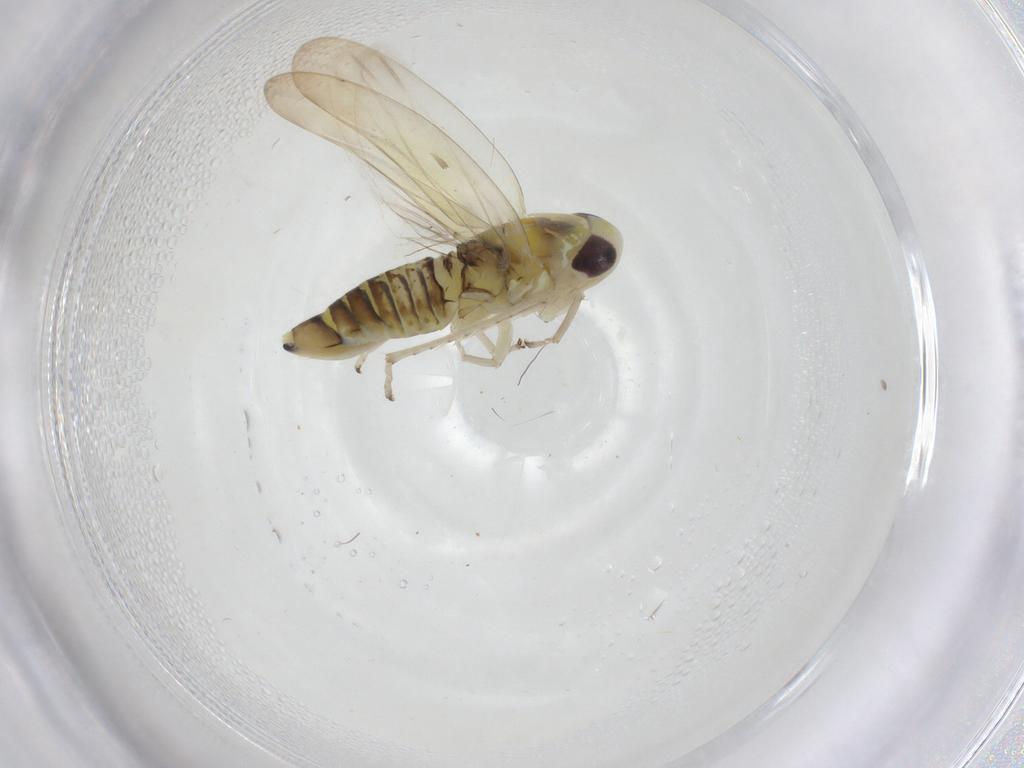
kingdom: Animalia
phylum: Arthropoda
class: Insecta
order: Hemiptera
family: Cicadellidae
